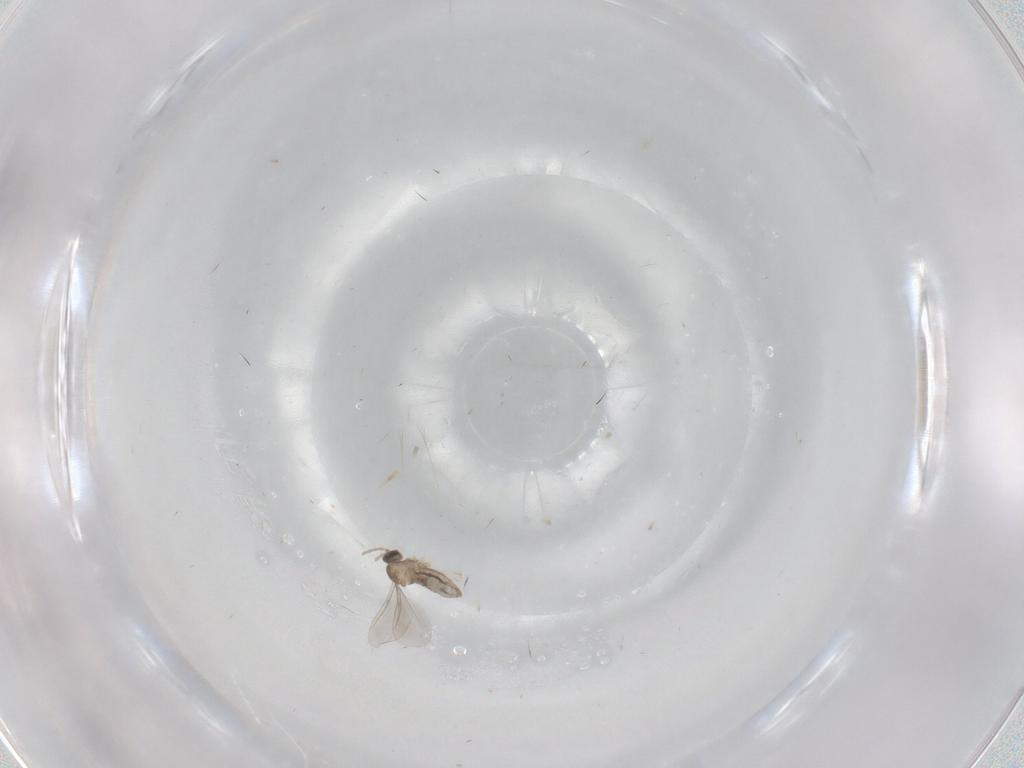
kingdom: Animalia
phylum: Arthropoda
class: Insecta
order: Diptera
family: Cecidomyiidae
